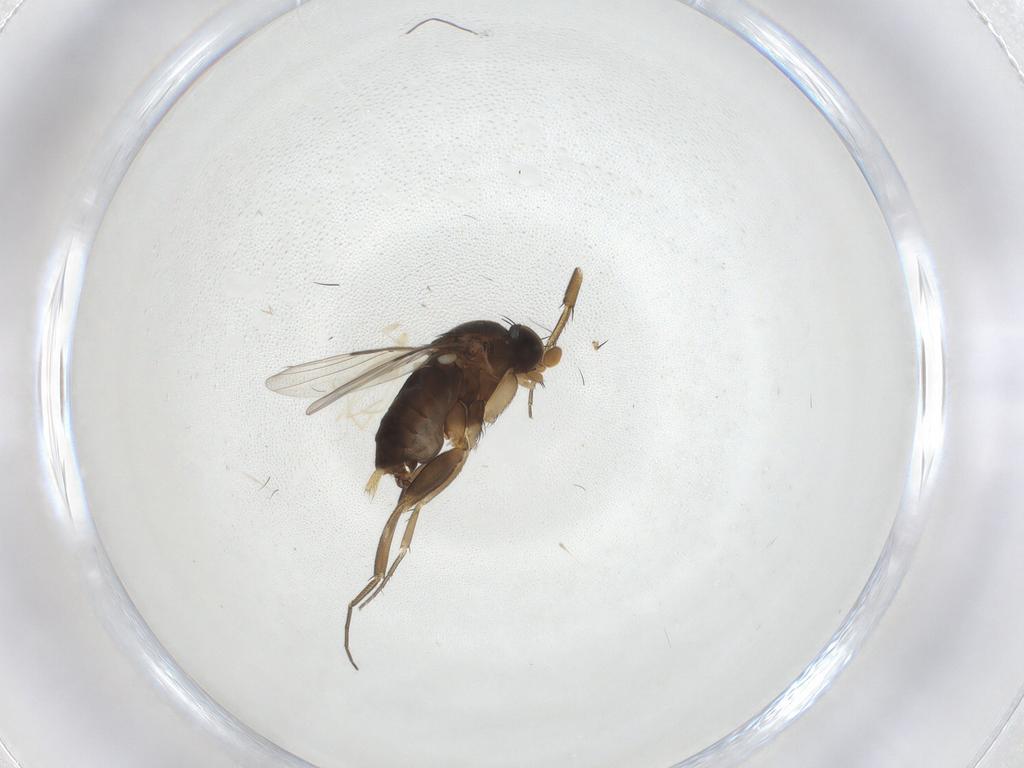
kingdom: Animalia
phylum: Arthropoda
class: Insecta
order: Diptera
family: Phoridae
